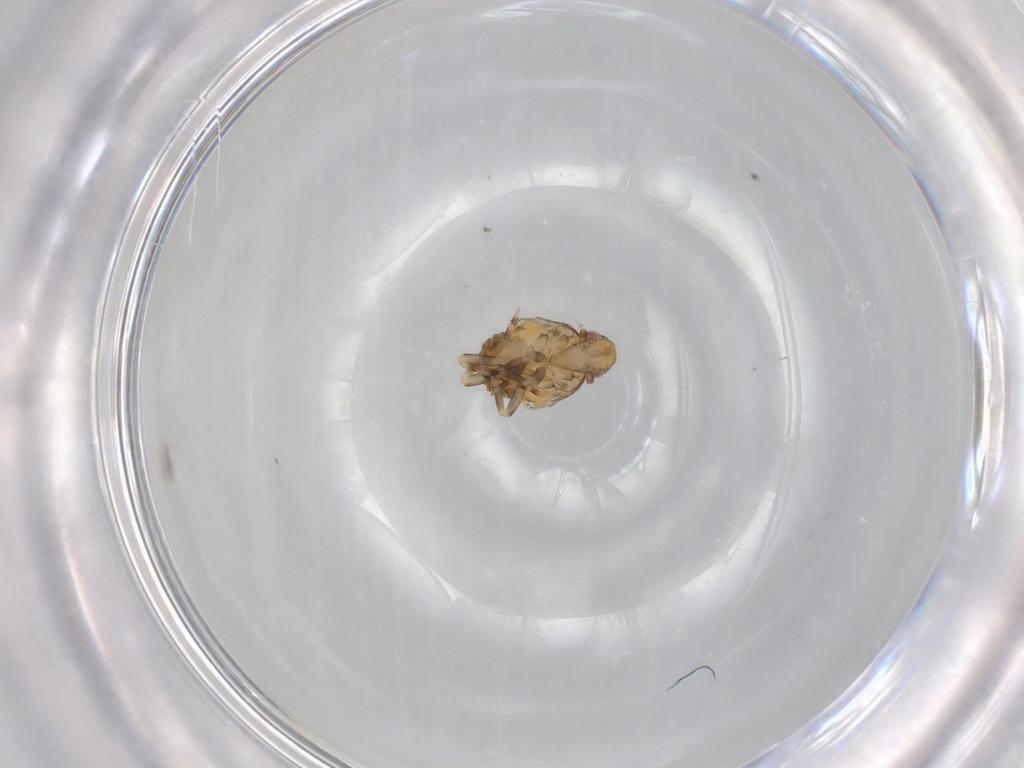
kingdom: Animalia
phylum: Arthropoda
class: Insecta
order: Hemiptera
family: Flatidae
